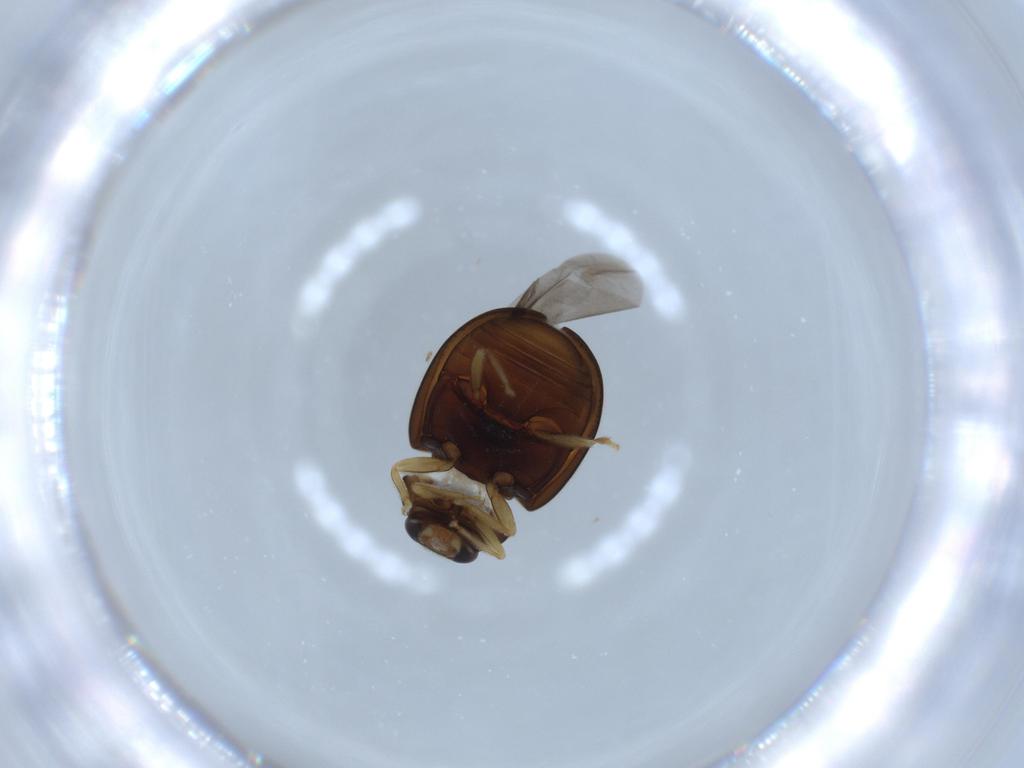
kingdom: Animalia
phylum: Arthropoda
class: Insecta
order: Coleoptera
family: Coccinellidae
